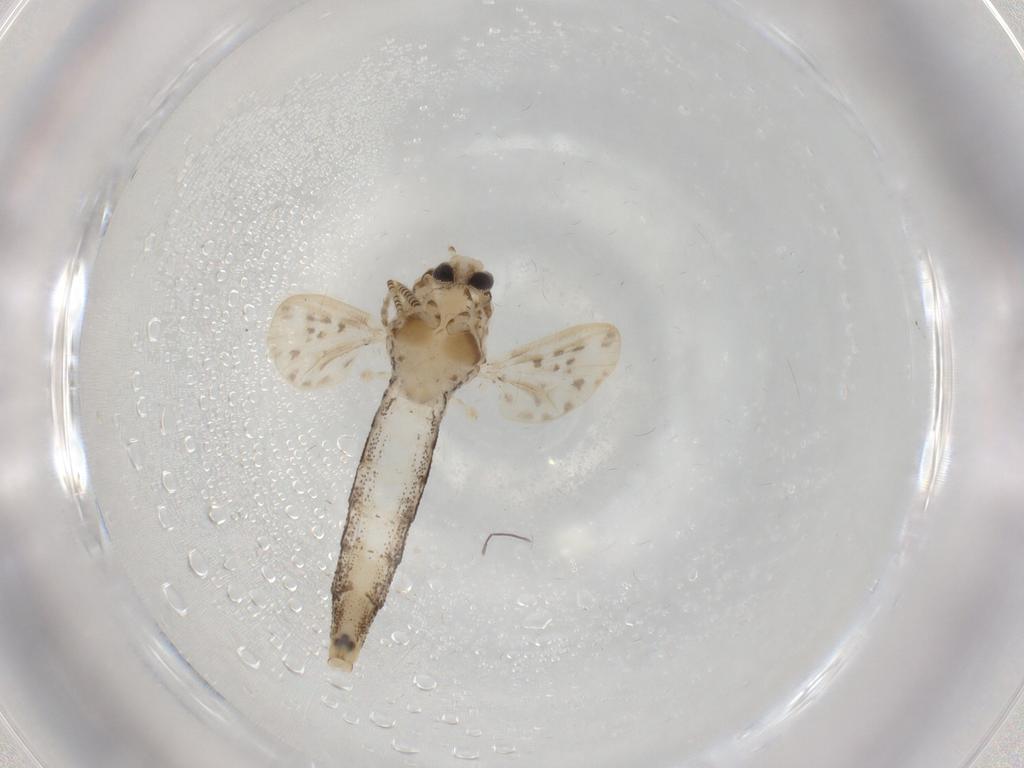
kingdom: Animalia
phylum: Arthropoda
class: Insecta
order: Diptera
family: Chaoboridae
